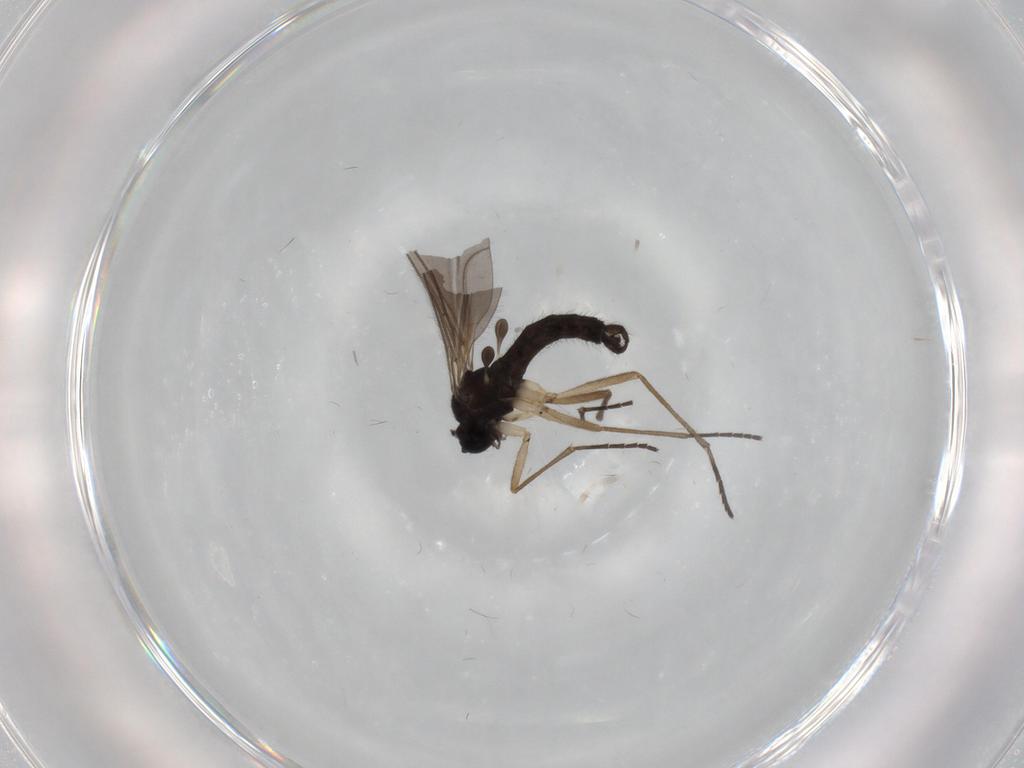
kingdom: Animalia
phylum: Arthropoda
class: Insecta
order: Diptera
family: Sciaridae
